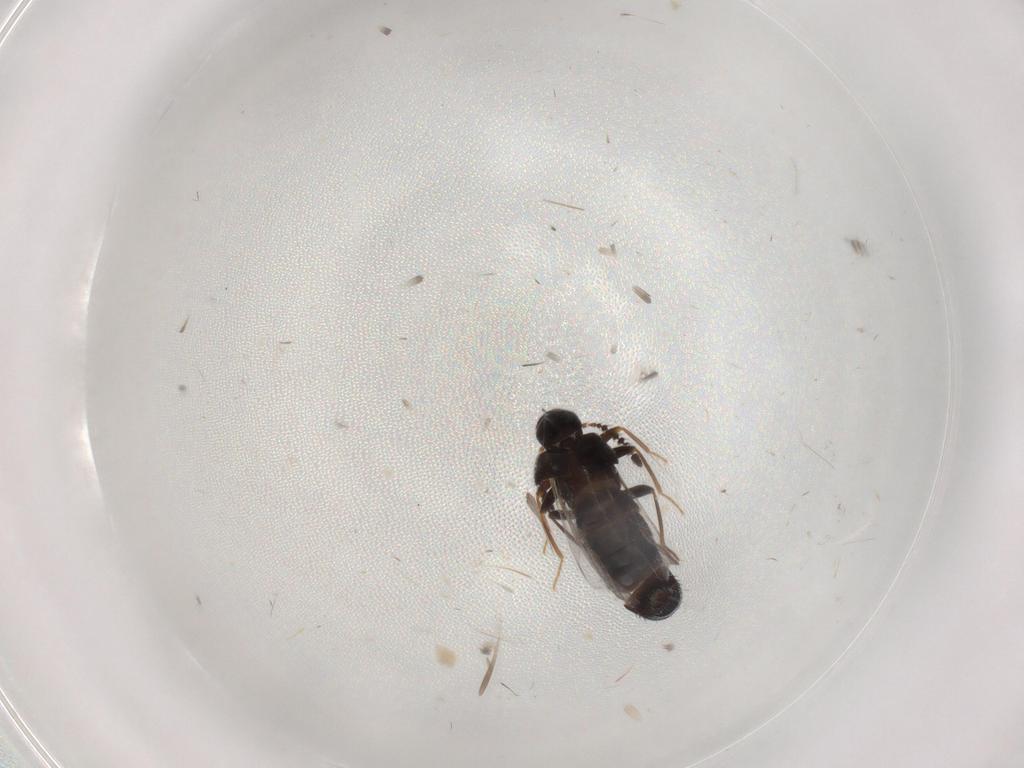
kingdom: Animalia
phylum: Arthropoda
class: Insecta
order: Coleoptera
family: Staphylinidae
